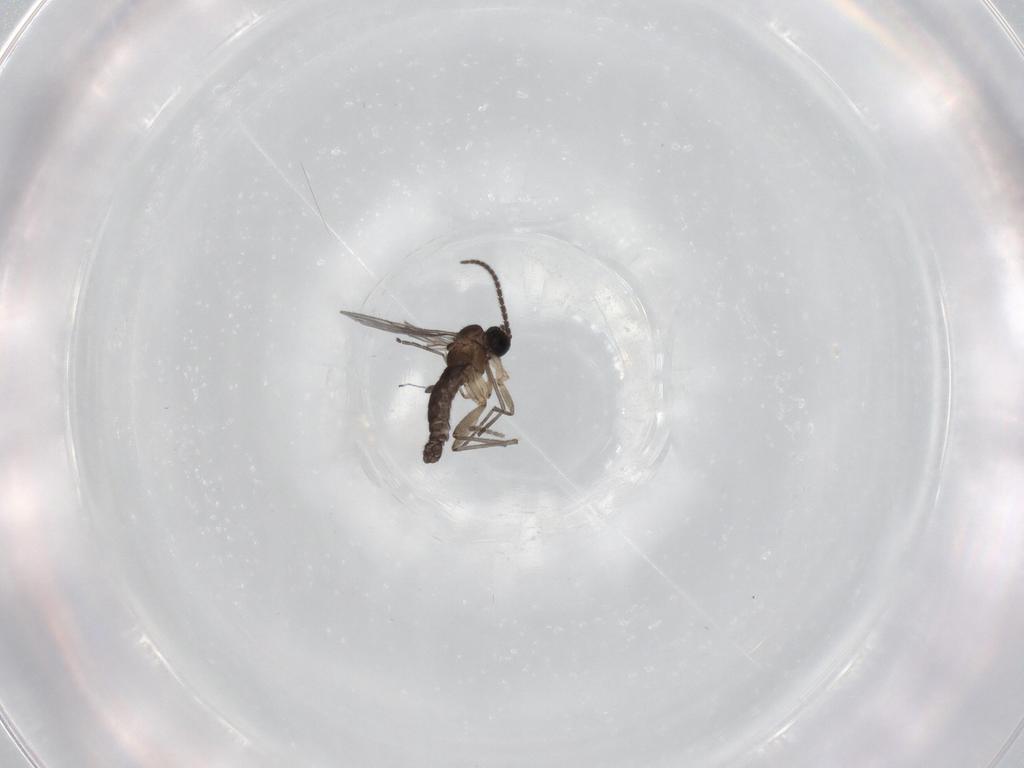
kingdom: Animalia
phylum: Arthropoda
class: Insecta
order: Diptera
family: Sciaridae
